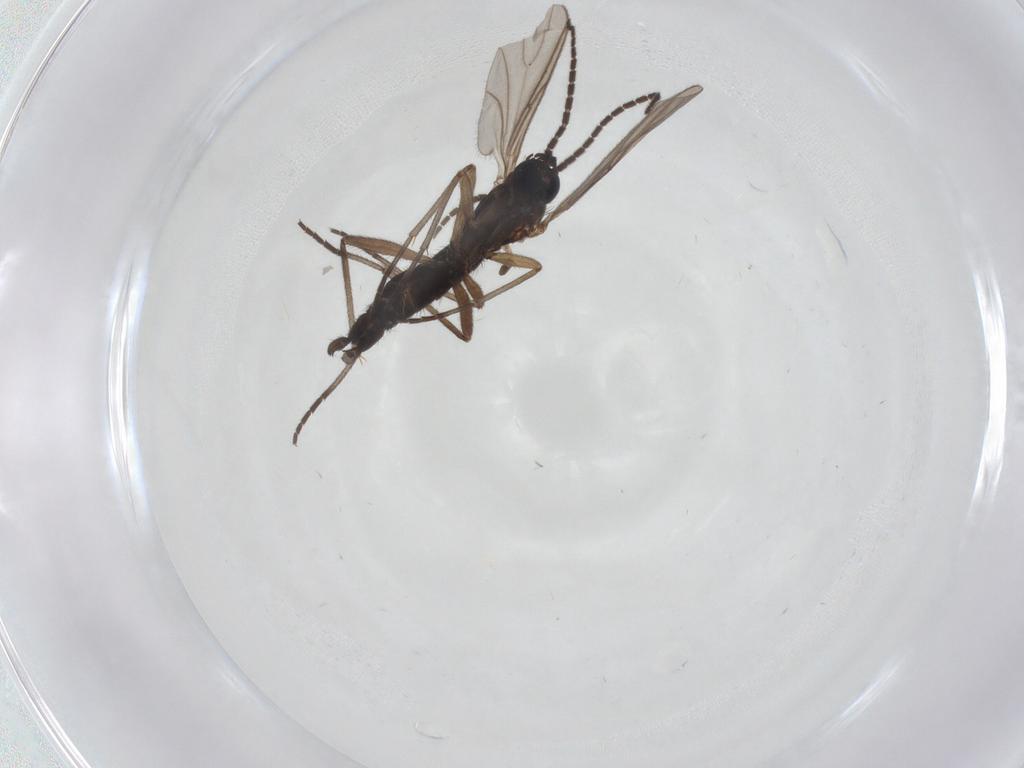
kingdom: Animalia
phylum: Arthropoda
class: Insecta
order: Diptera
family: Sciaridae
